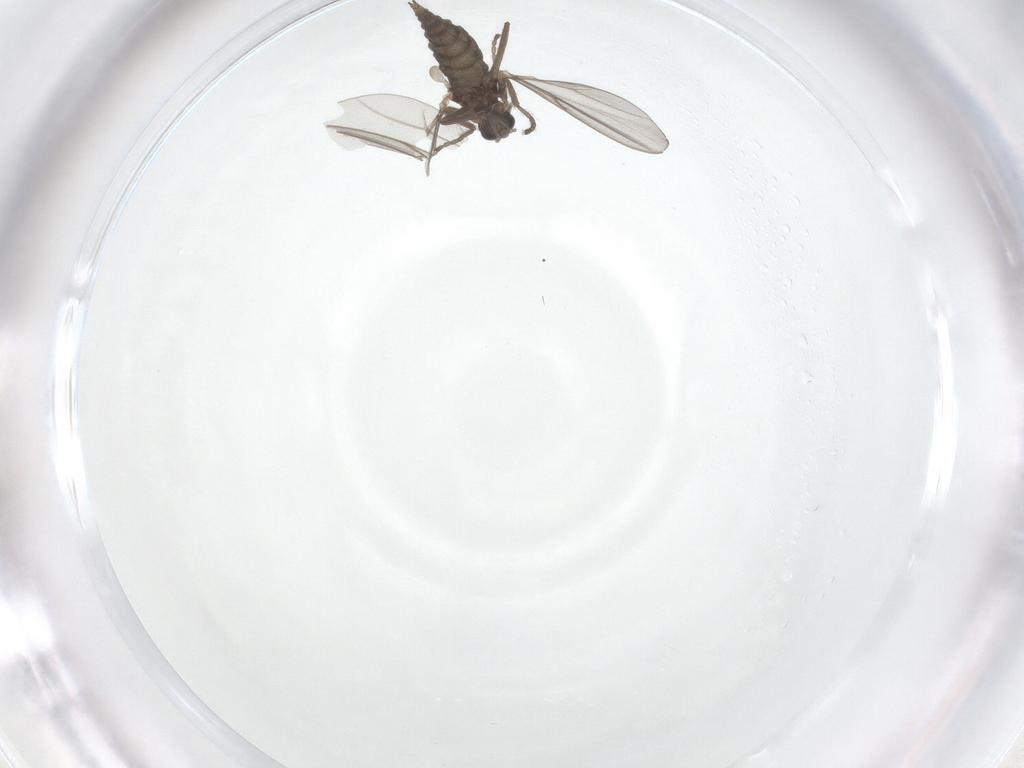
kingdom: Animalia
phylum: Arthropoda
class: Insecta
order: Diptera
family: Cecidomyiidae
